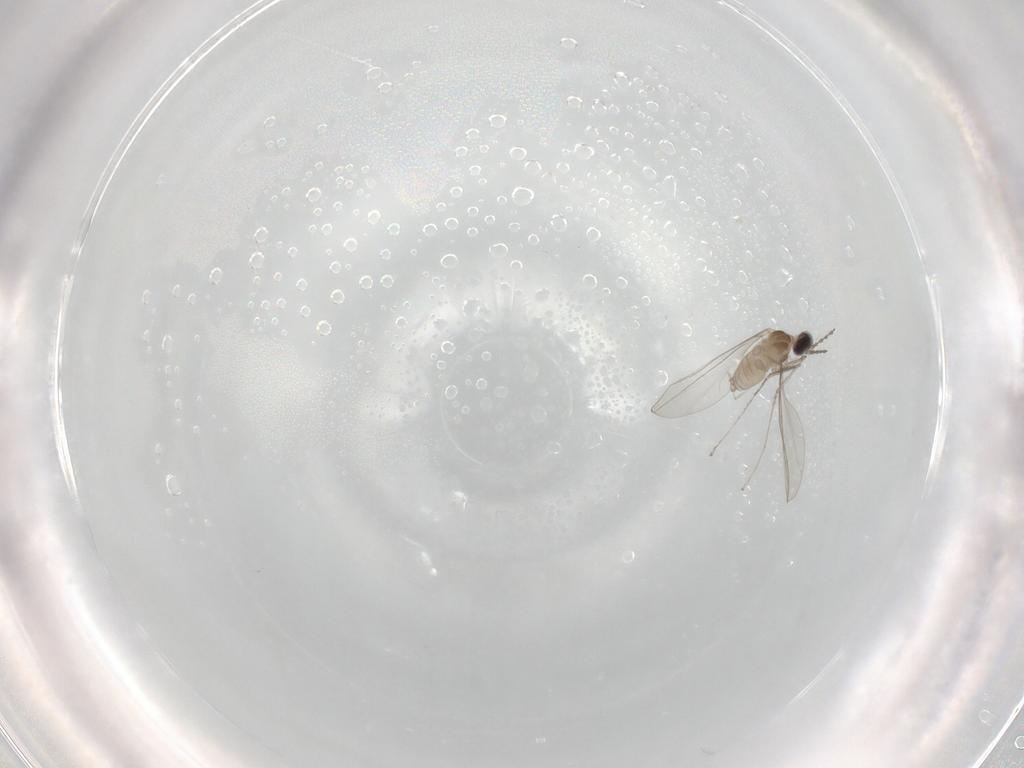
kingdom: Animalia
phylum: Arthropoda
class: Insecta
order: Diptera
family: Cecidomyiidae
